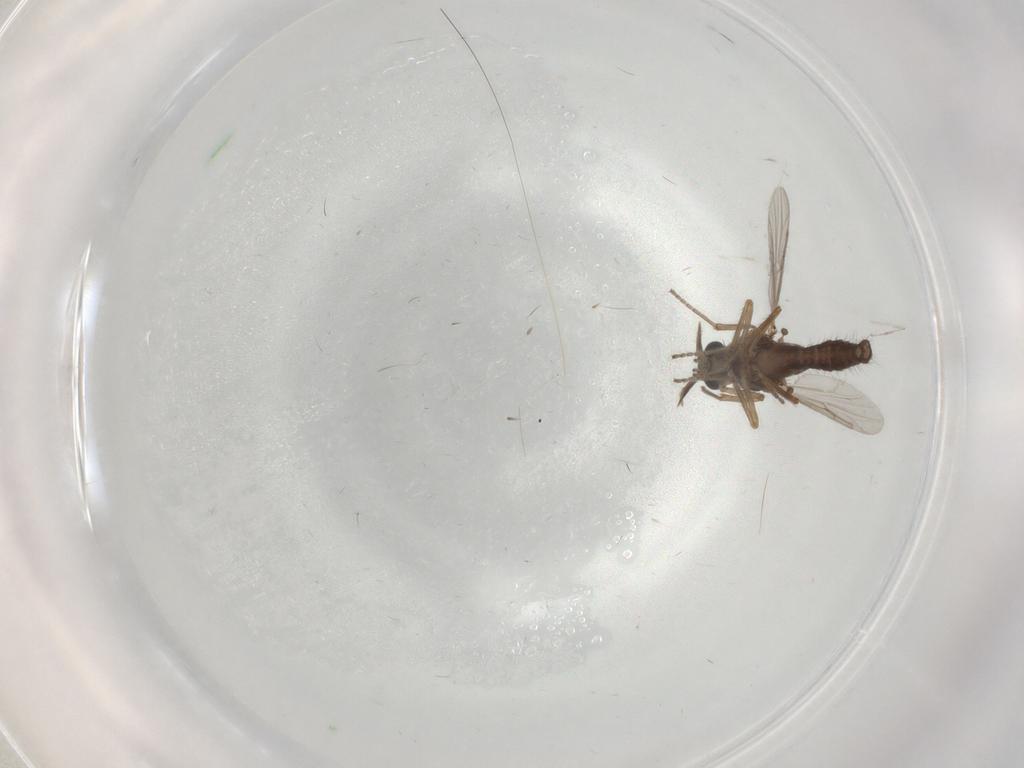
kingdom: Animalia
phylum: Arthropoda
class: Insecta
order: Diptera
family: Ceratopogonidae
